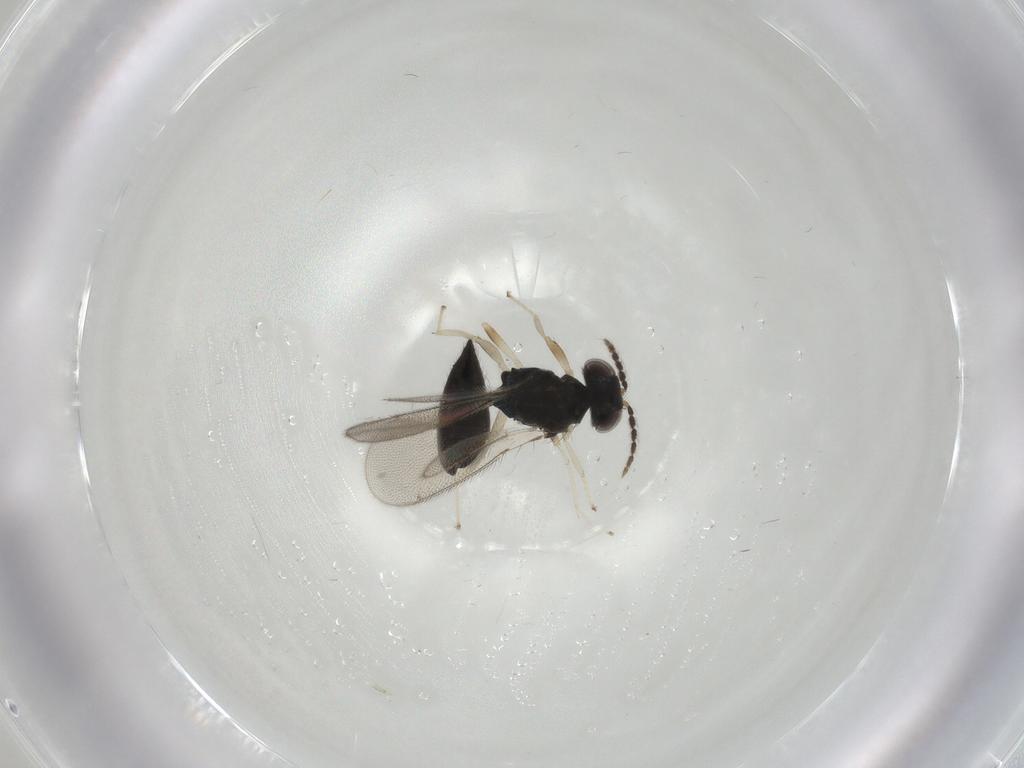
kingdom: Animalia
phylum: Arthropoda
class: Insecta
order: Hymenoptera
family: Eulophidae
